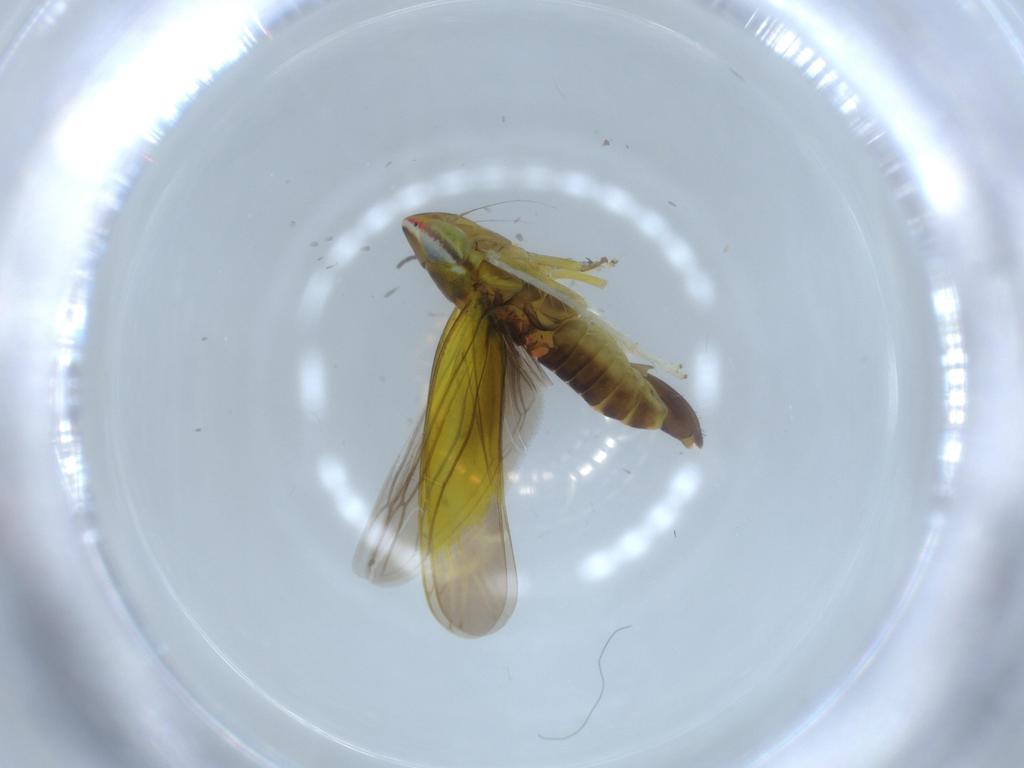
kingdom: Animalia
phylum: Arthropoda
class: Insecta
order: Hemiptera
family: Cicadellidae
